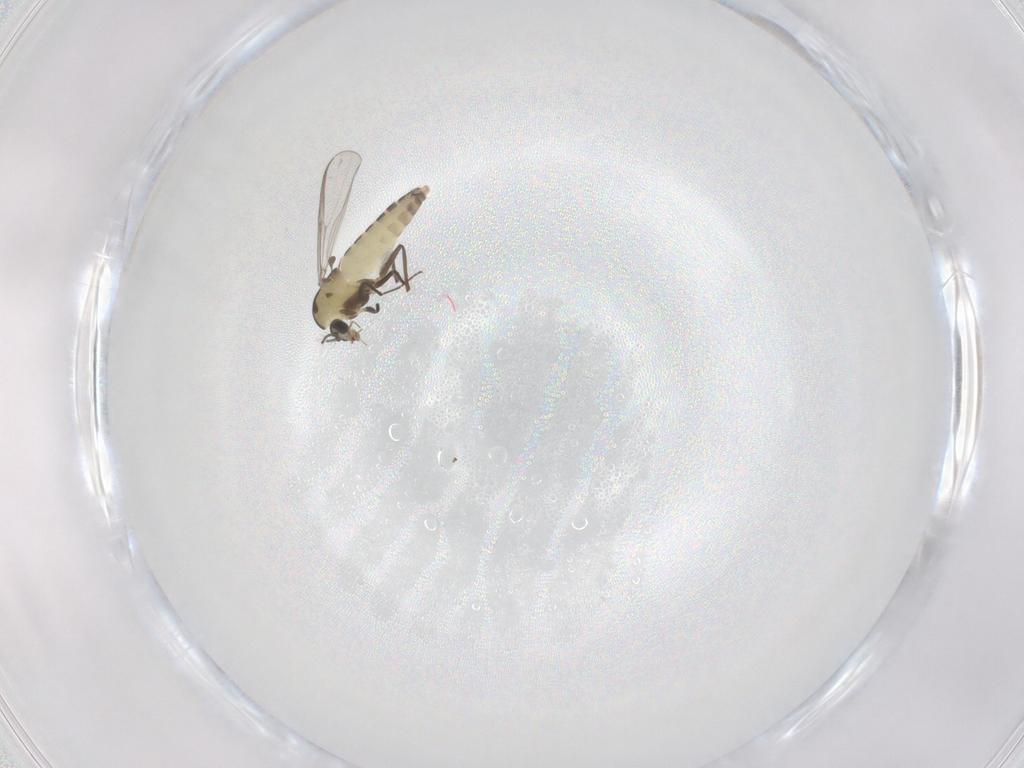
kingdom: Animalia
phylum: Arthropoda
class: Insecta
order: Diptera
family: Chironomidae
